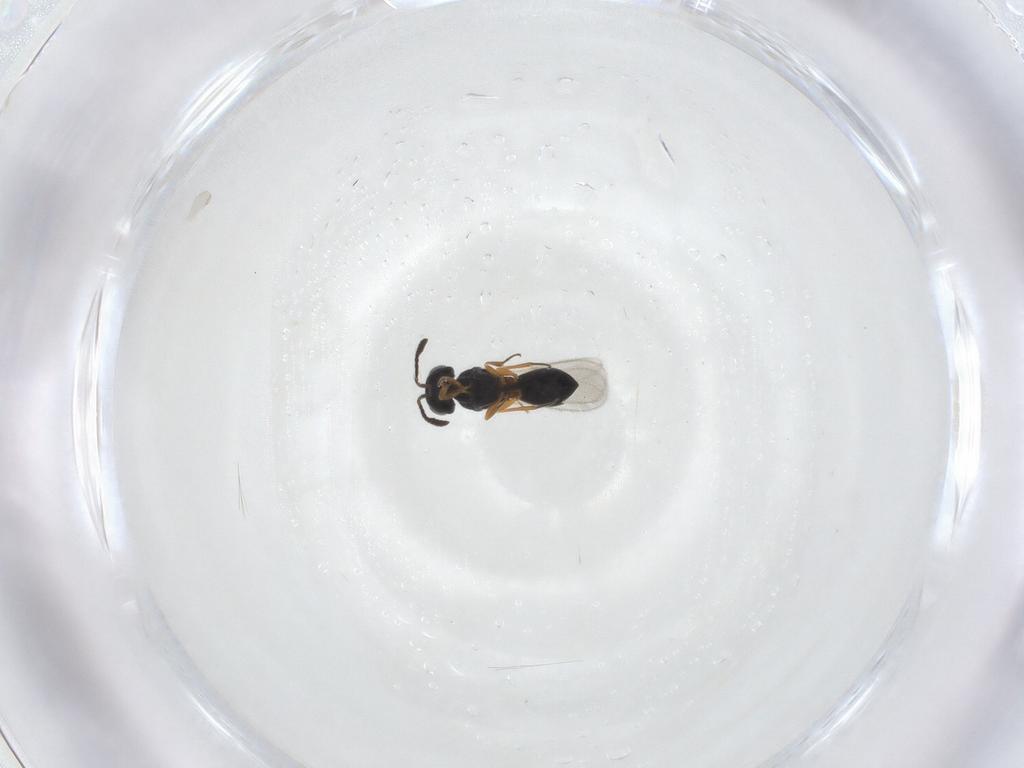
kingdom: Animalia
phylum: Arthropoda
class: Insecta
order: Hymenoptera
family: Scelionidae
